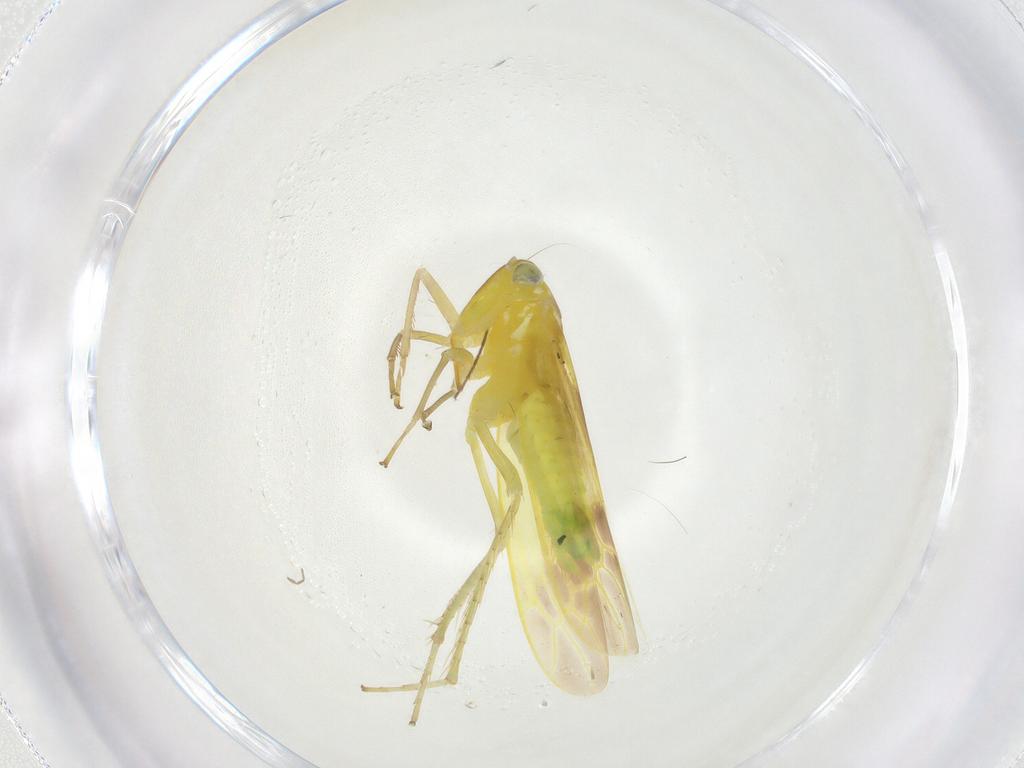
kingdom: Animalia
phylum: Arthropoda
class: Insecta
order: Hemiptera
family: Cicadellidae
